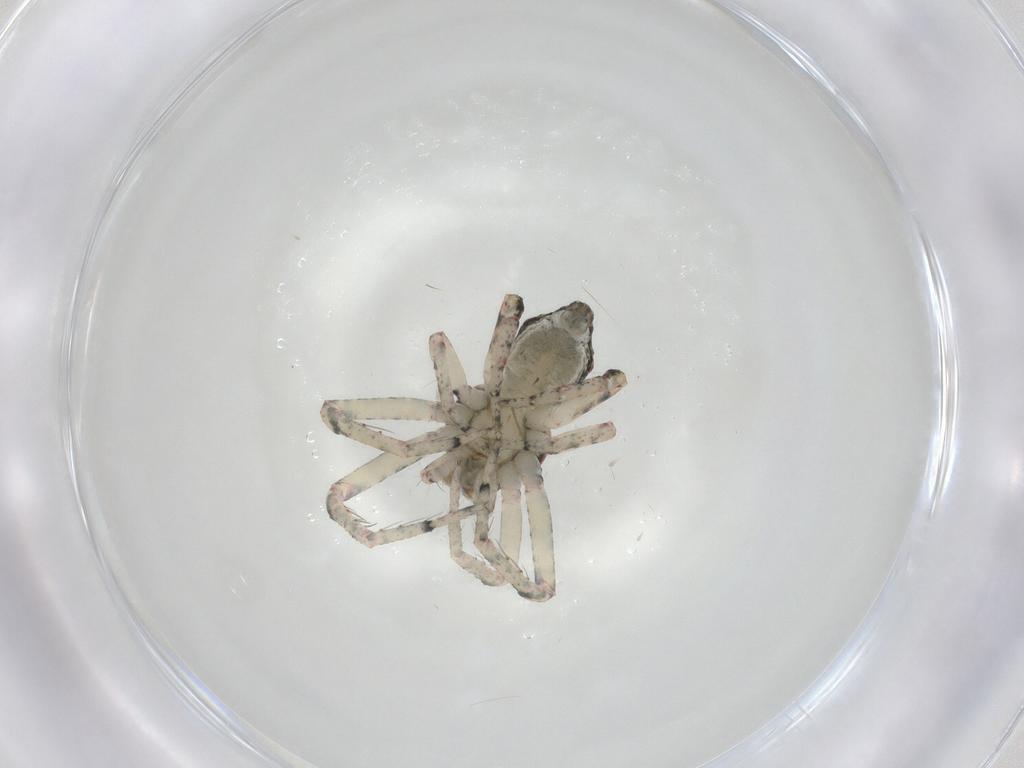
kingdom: Animalia
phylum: Arthropoda
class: Arachnida
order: Araneae
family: Thomisidae
